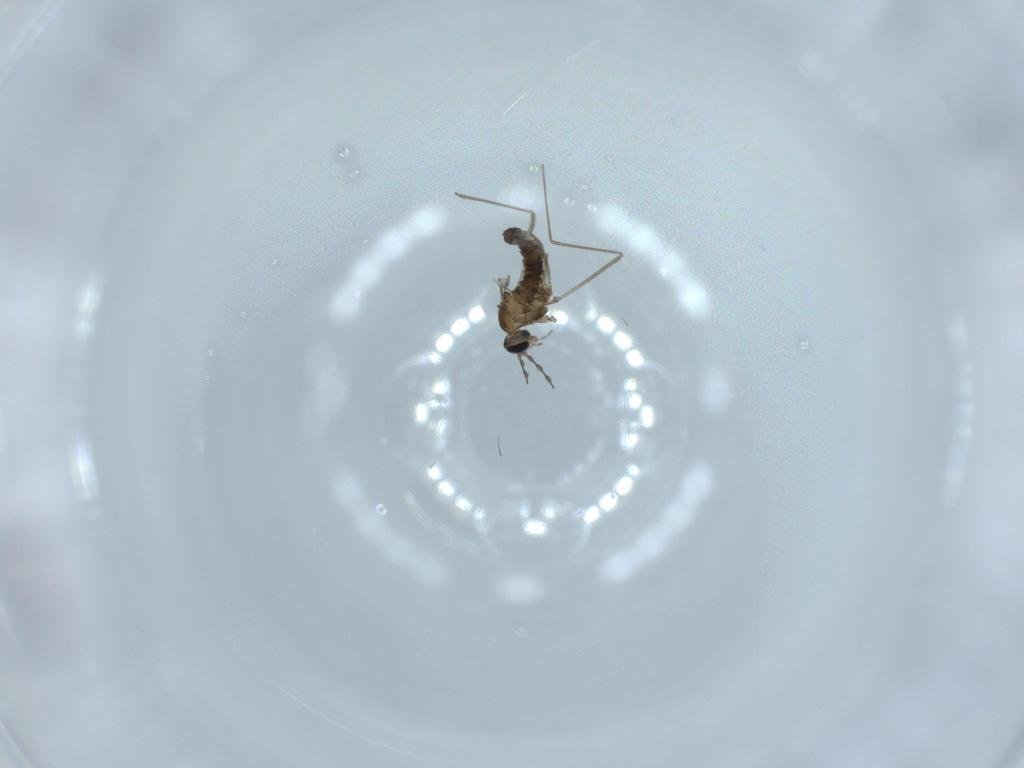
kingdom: Animalia
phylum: Arthropoda
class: Insecta
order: Diptera
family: Cecidomyiidae
